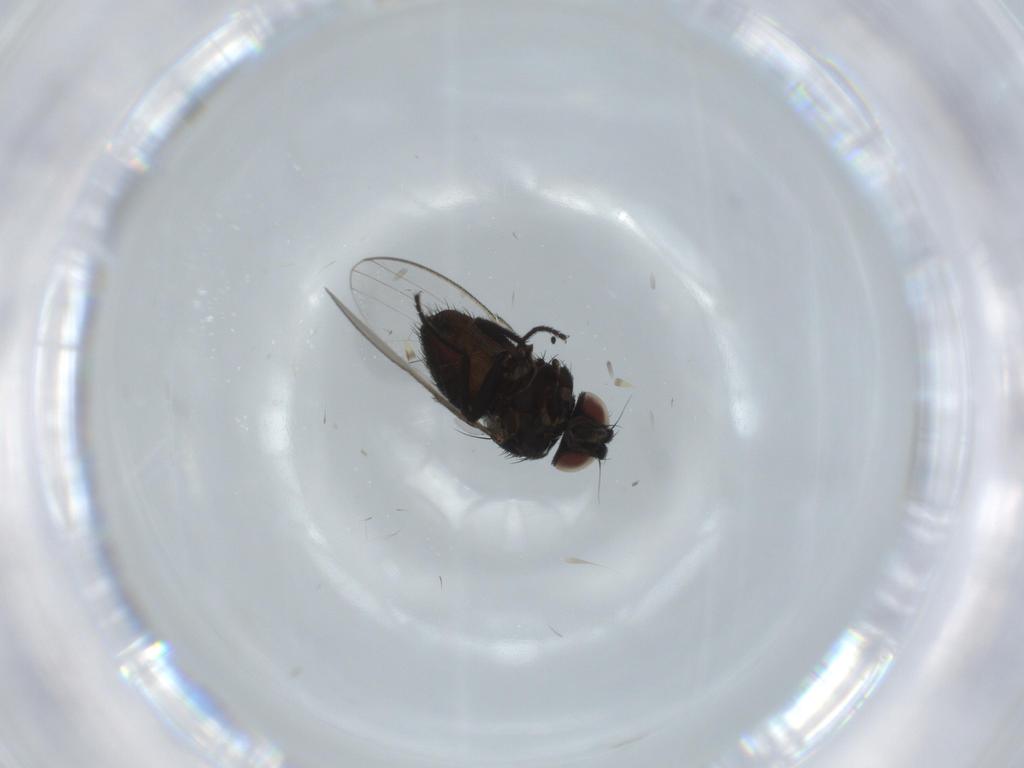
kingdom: Animalia
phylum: Arthropoda
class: Insecta
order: Diptera
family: Milichiidae
